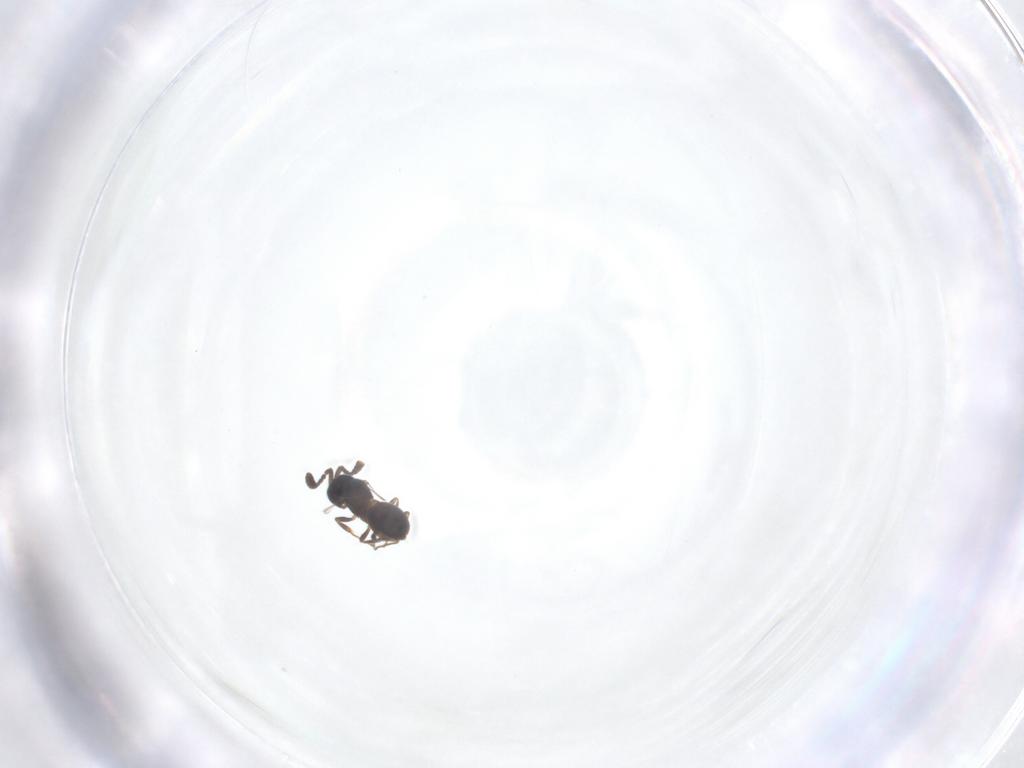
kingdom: Animalia
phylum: Arthropoda
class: Insecta
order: Hymenoptera
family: Scelionidae
